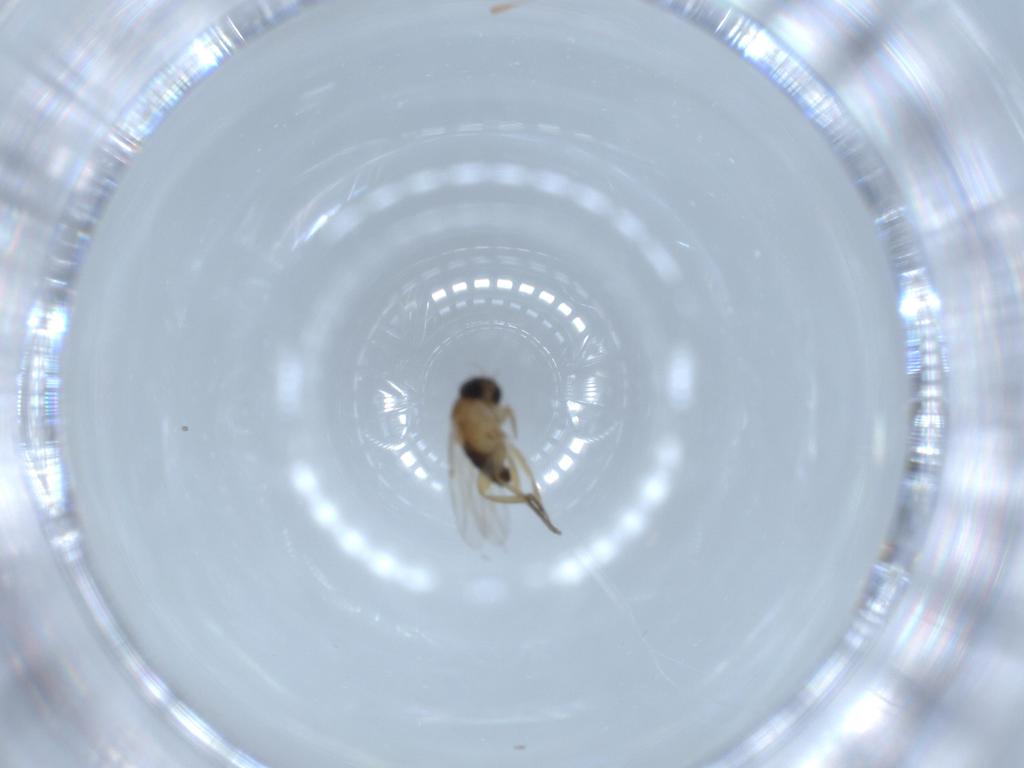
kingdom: Animalia
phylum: Arthropoda
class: Insecta
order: Diptera
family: Phoridae
